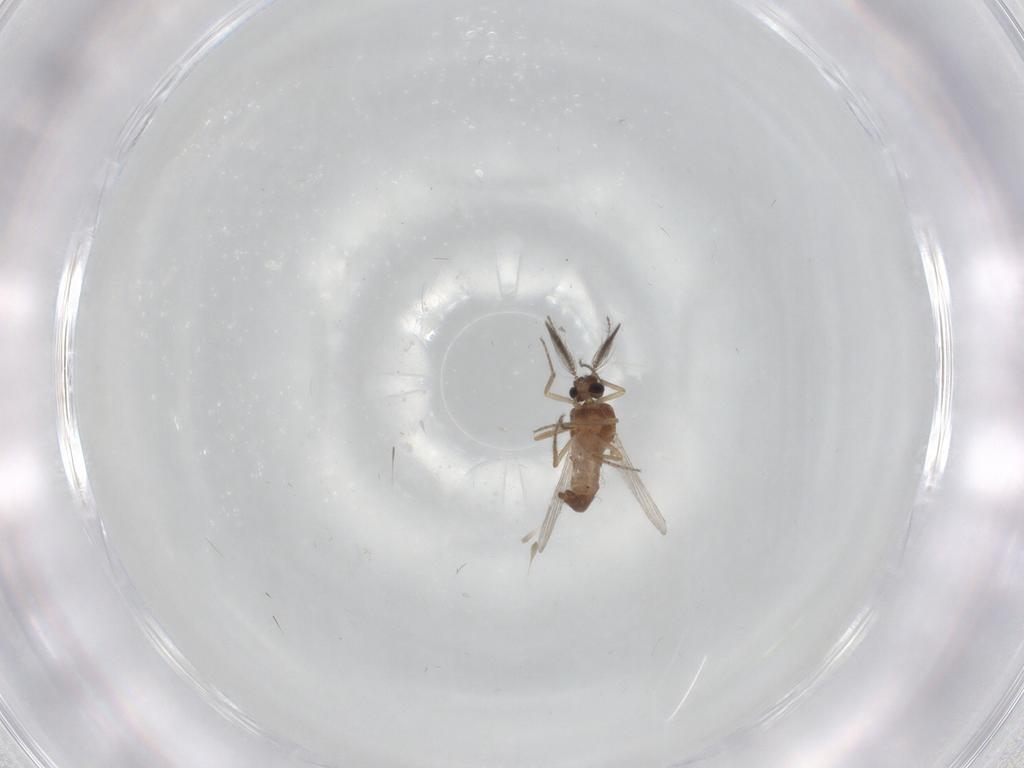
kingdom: Animalia
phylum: Arthropoda
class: Insecta
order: Diptera
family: Ceratopogonidae
